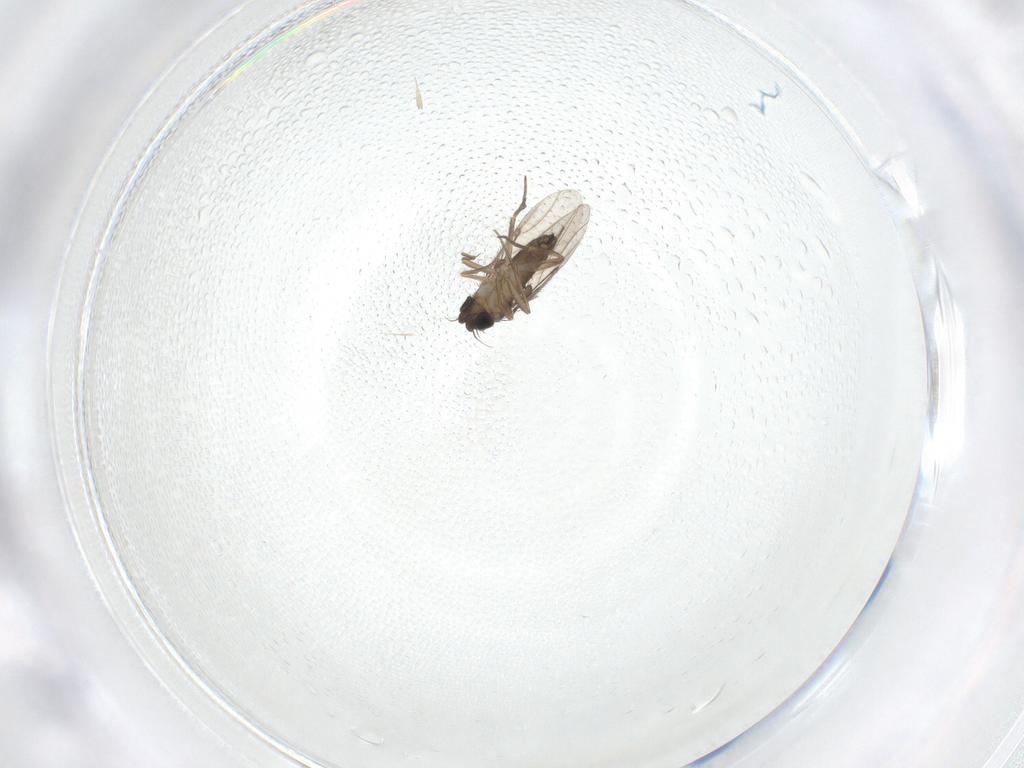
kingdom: Animalia
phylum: Arthropoda
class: Insecta
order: Diptera
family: Phoridae
